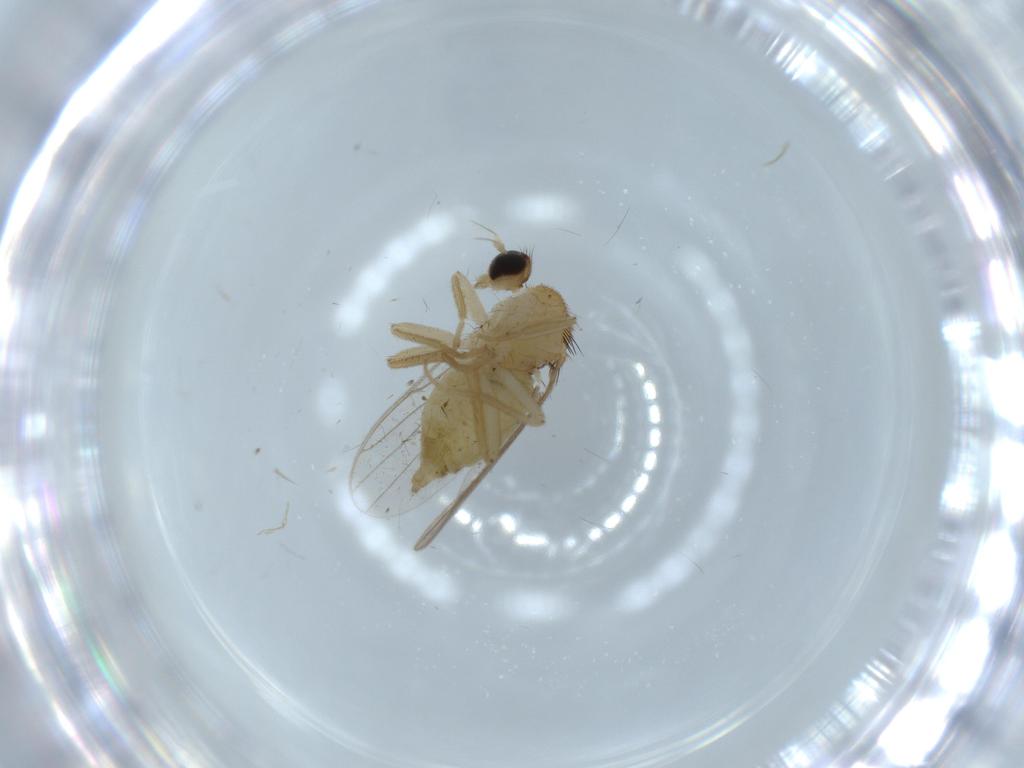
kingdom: Animalia
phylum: Arthropoda
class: Insecta
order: Diptera
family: Hybotidae
